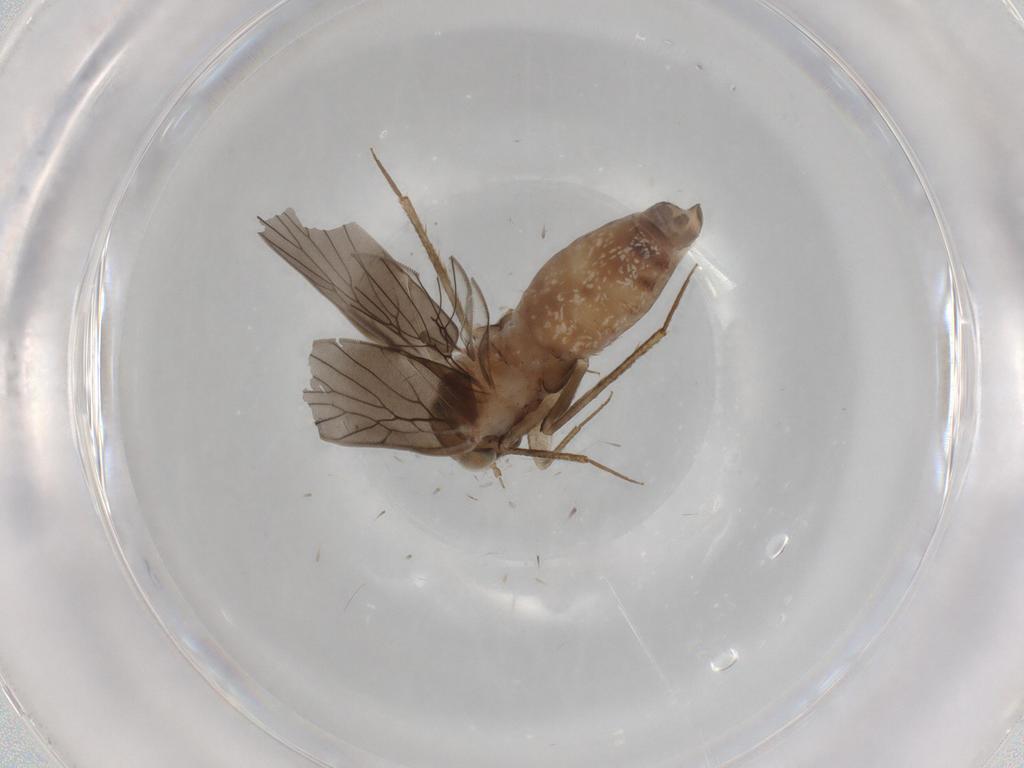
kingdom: Animalia
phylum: Arthropoda
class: Insecta
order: Psocodea
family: Lepidopsocidae
